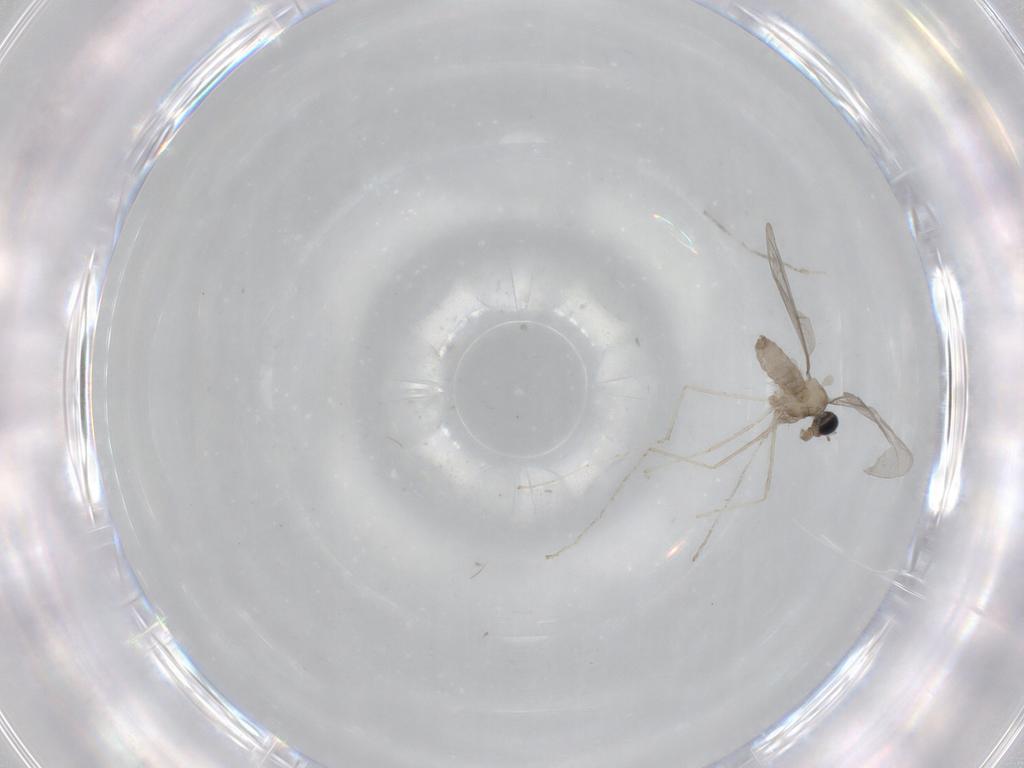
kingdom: Animalia
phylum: Arthropoda
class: Insecta
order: Diptera
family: Cecidomyiidae
